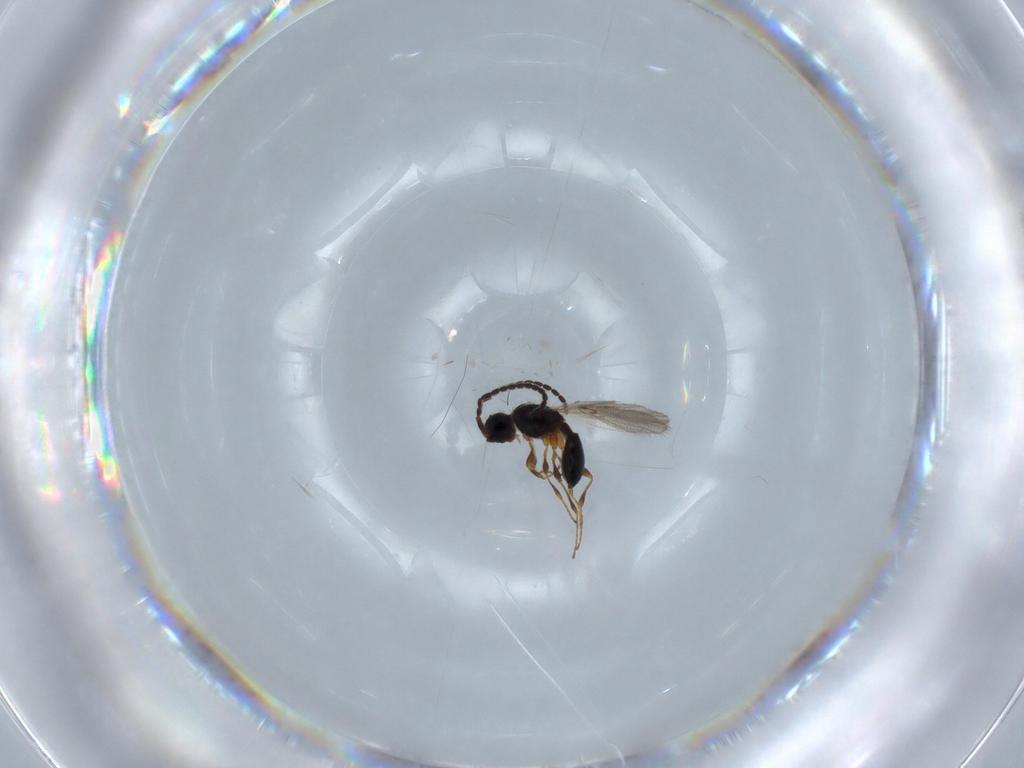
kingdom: Animalia
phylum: Arthropoda
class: Insecta
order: Hymenoptera
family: Diapriidae
